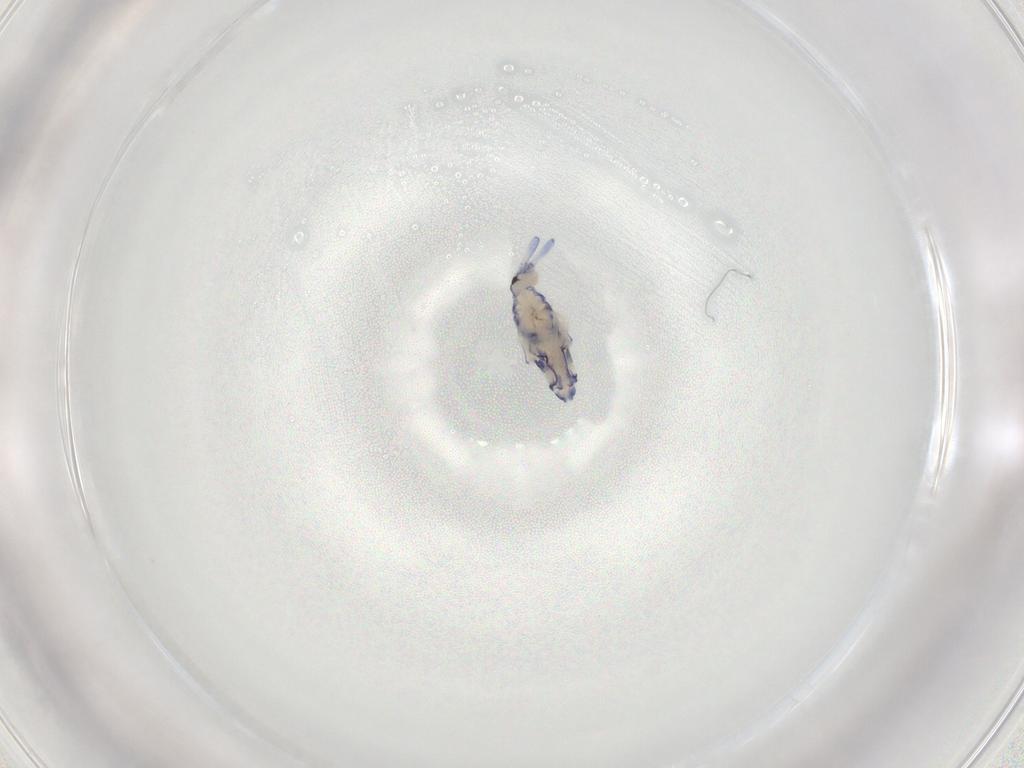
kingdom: Animalia
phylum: Arthropoda
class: Collembola
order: Entomobryomorpha
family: Entomobryidae
